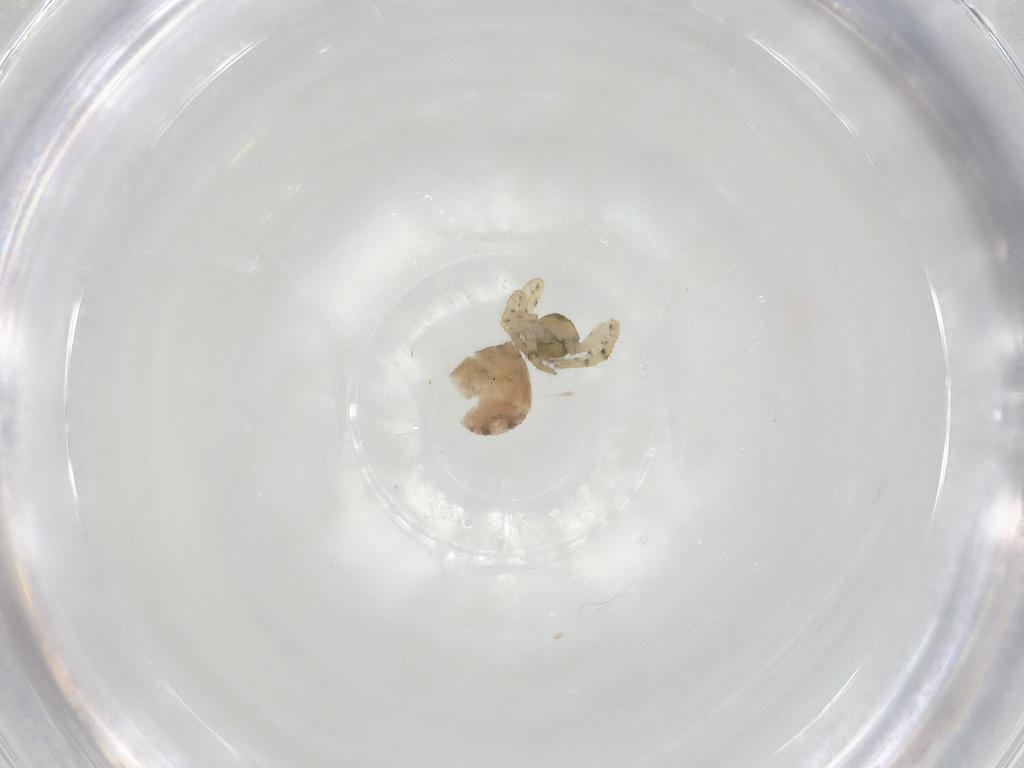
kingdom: Animalia
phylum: Arthropoda
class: Arachnida
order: Araneae
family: Theridiidae
